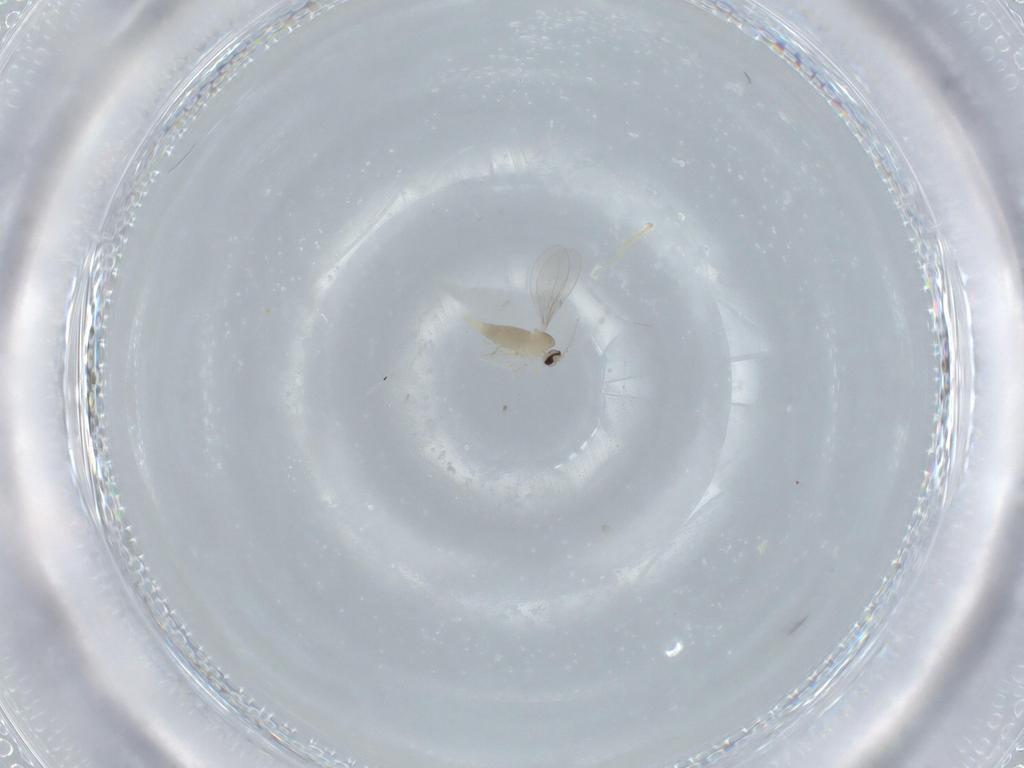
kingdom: Animalia
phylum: Arthropoda
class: Insecta
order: Diptera
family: Cecidomyiidae
